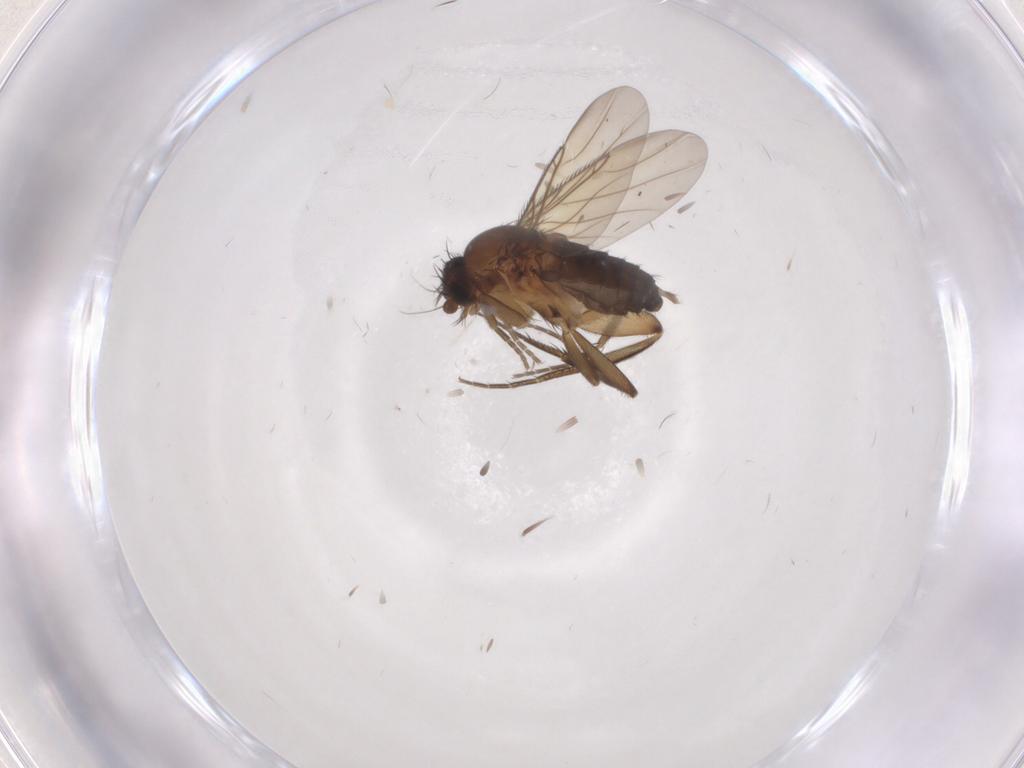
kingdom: Animalia
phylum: Arthropoda
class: Insecta
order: Diptera
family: Phoridae
